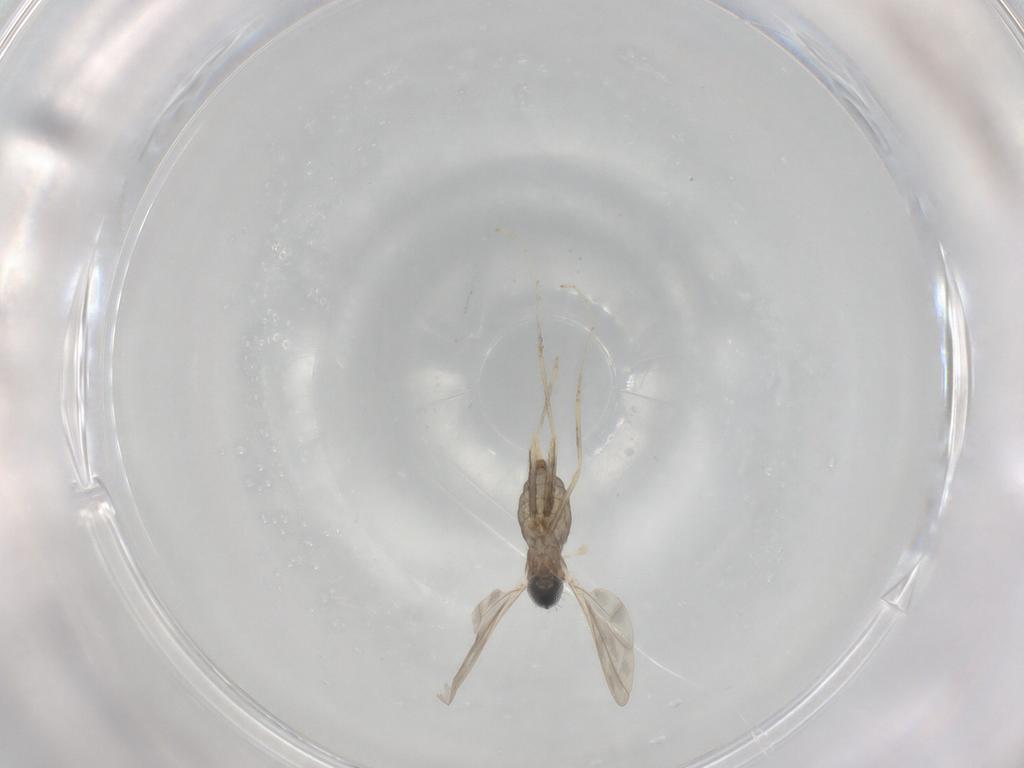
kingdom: Animalia
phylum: Arthropoda
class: Insecta
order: Diptera
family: Cecidomyiidae
